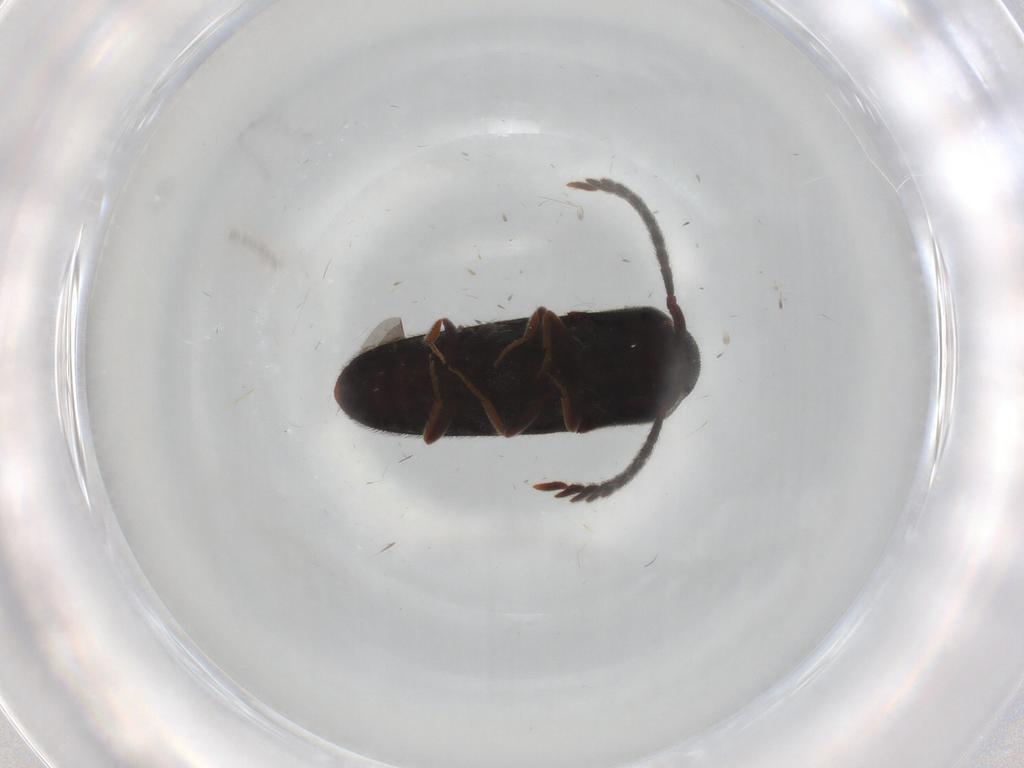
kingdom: Animalia
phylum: Arthropoda
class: Insecta
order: Coleoptera
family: Eucnemidae
